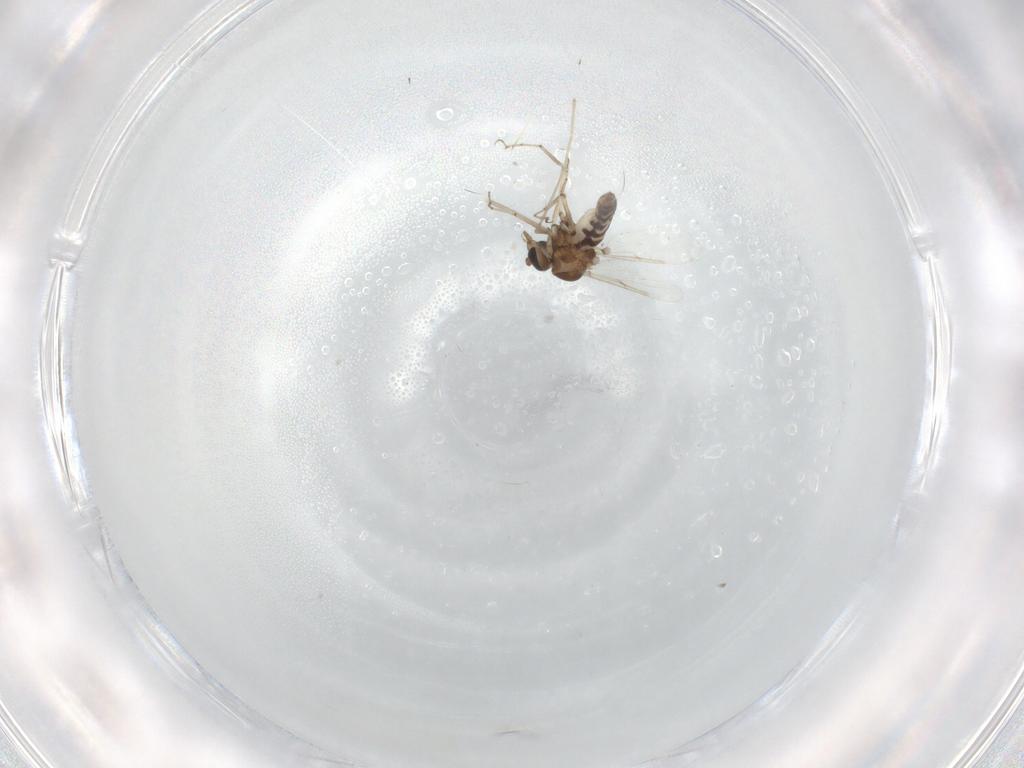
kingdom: Animalia
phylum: Arthropoda
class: Insecta
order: Diptera
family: Cecidomyiidae
